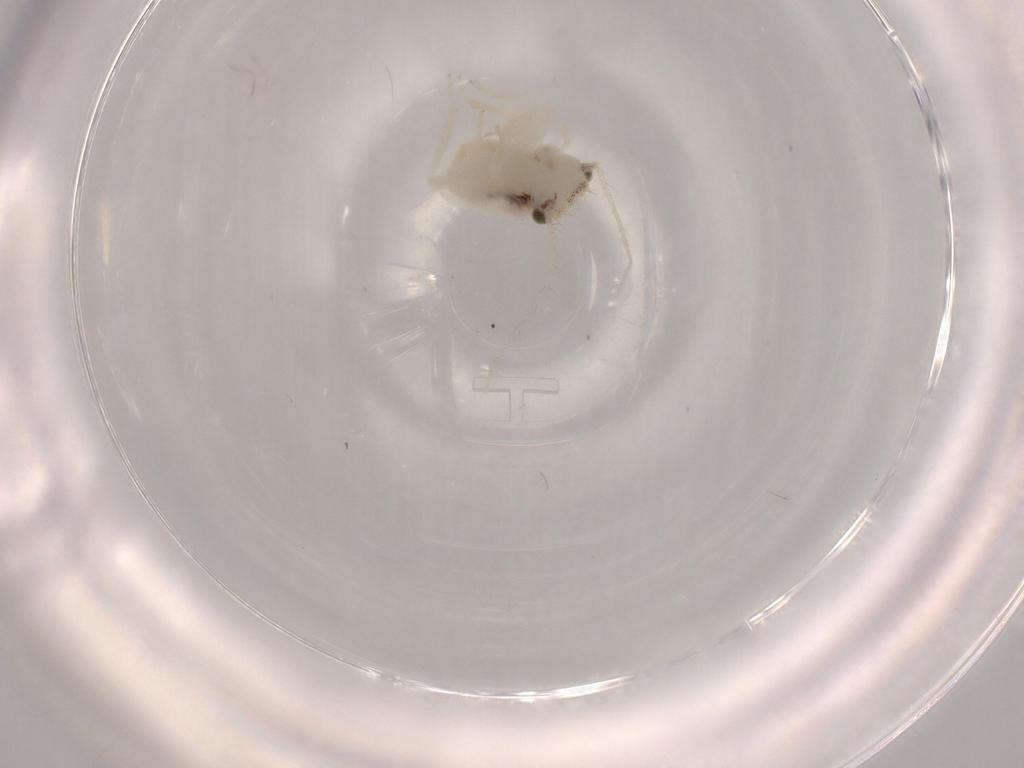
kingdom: Animalia
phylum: Arthropoda
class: Insecta
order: Psocodea
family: Lepidopsocidae
